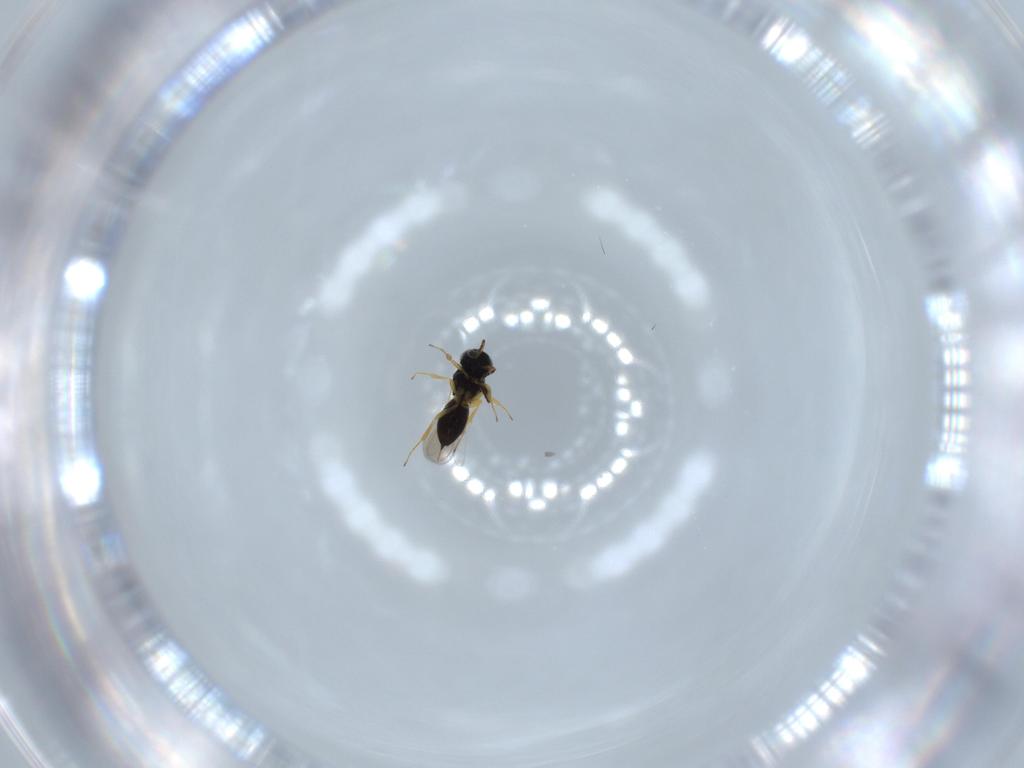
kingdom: Animalia
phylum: Arthropoda
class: Insecta
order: Hymenoptera
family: Scelionidae
